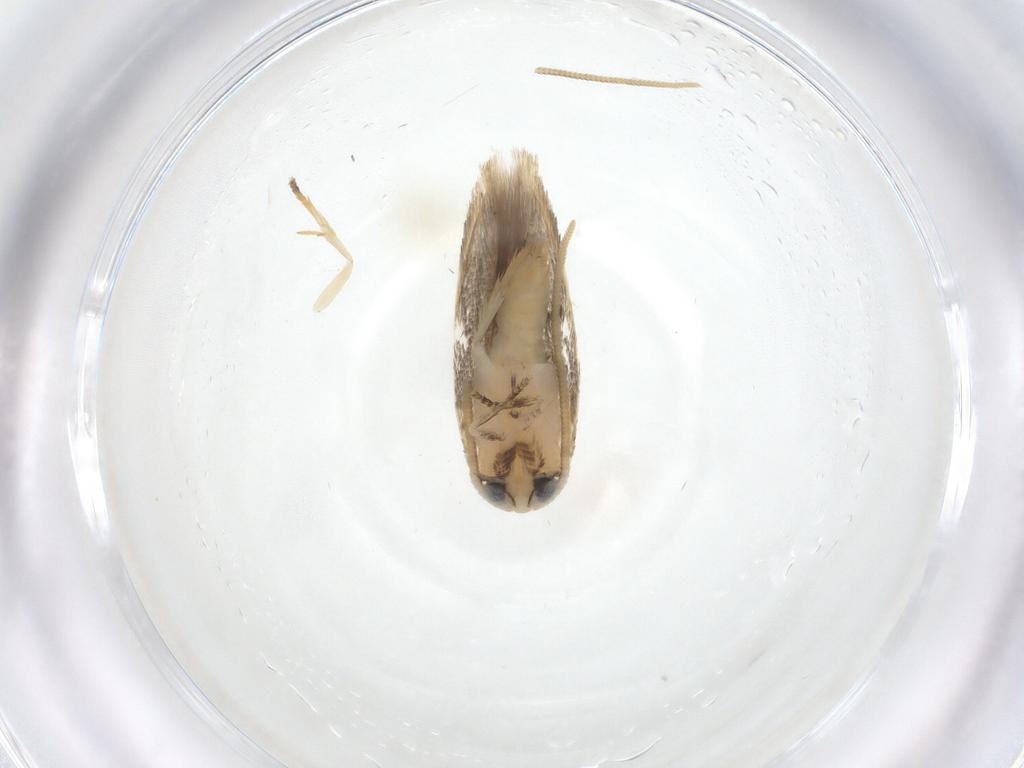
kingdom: Animalia
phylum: Arthropoda
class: Insecta
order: Lepidoptera
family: Opostegidae
